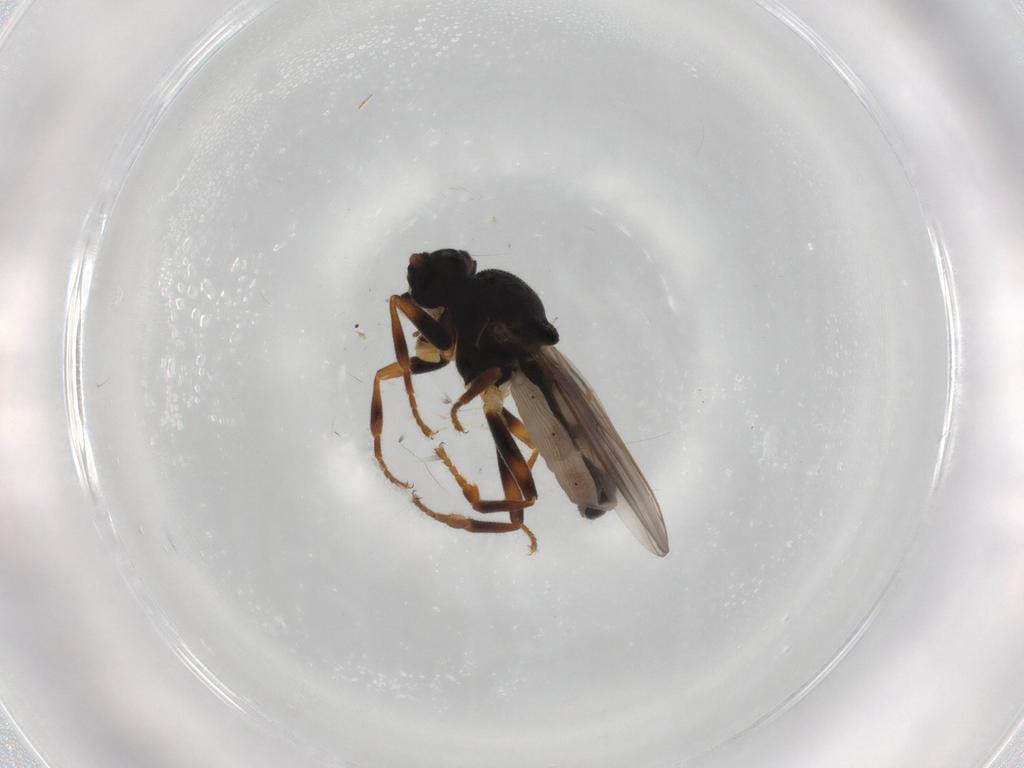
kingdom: Animalia
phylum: Arthropoda
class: Insecta
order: Diptera
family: Sphaeroceridae
